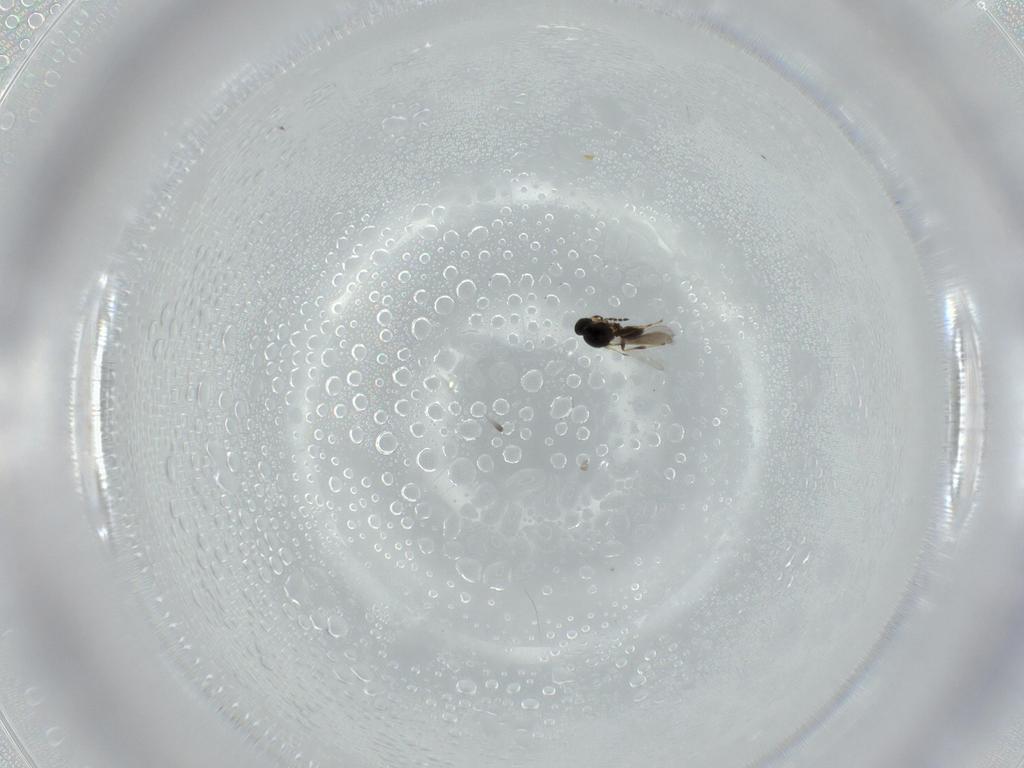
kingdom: Animalia
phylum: Arthropoda
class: Insecta
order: Hymenoptera
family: Platygastridae
